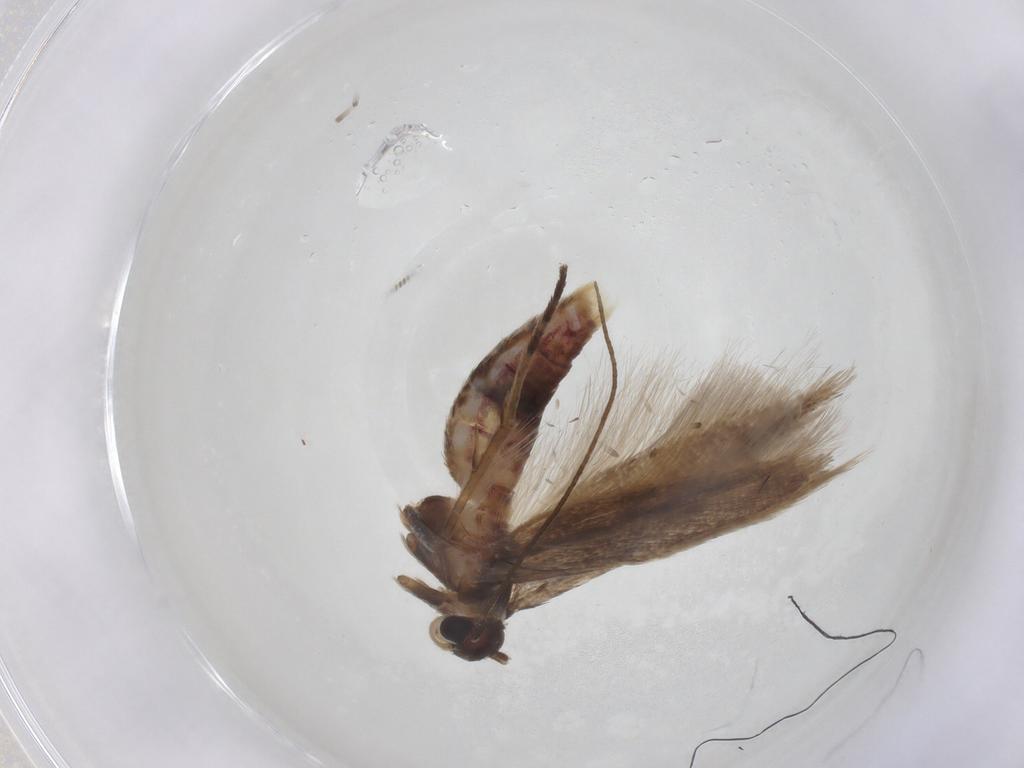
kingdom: Animalia
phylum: Arthropoda
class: Insecta
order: Lepidoptera
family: Cosmopterigidae
